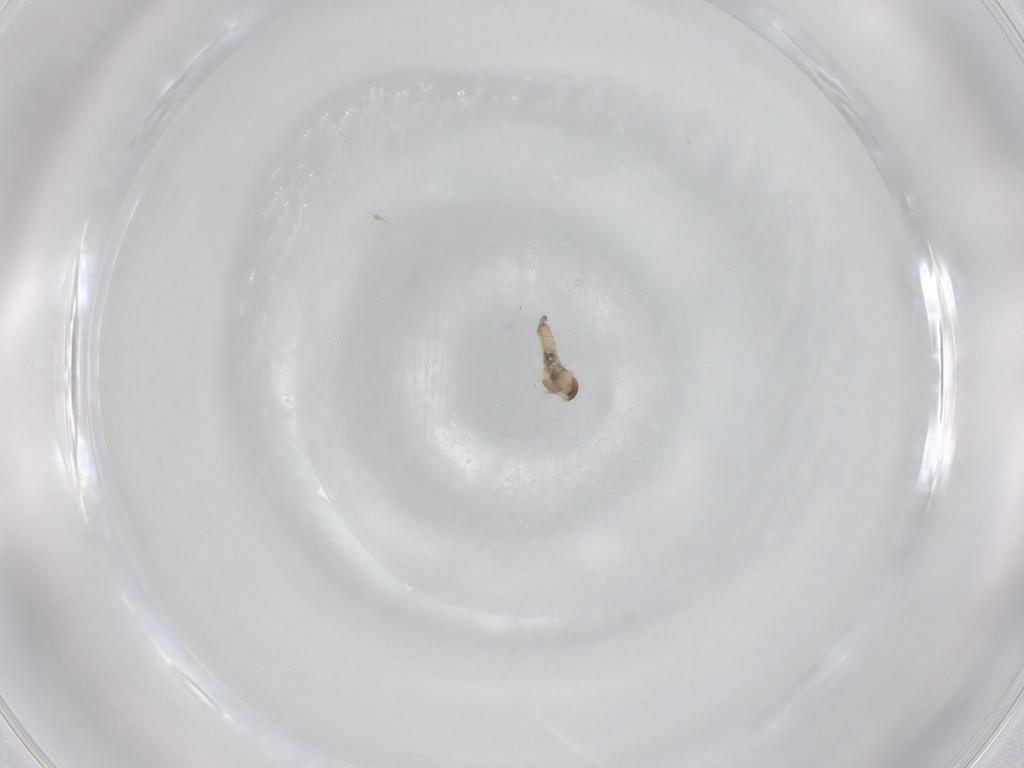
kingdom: Animalia
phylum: Arthropoda
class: Insecta
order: Diptera
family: Cecidomyiidae
